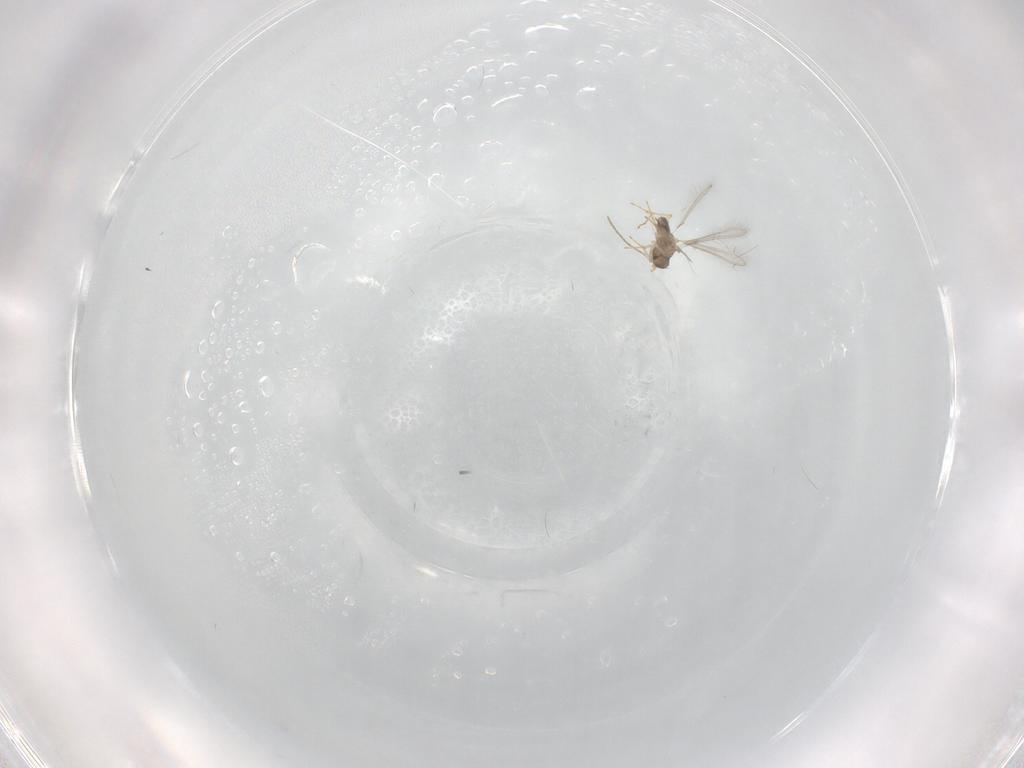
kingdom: Animalia
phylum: Arthropoda
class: Insecta
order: Hymenoptera
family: Mymaridae
